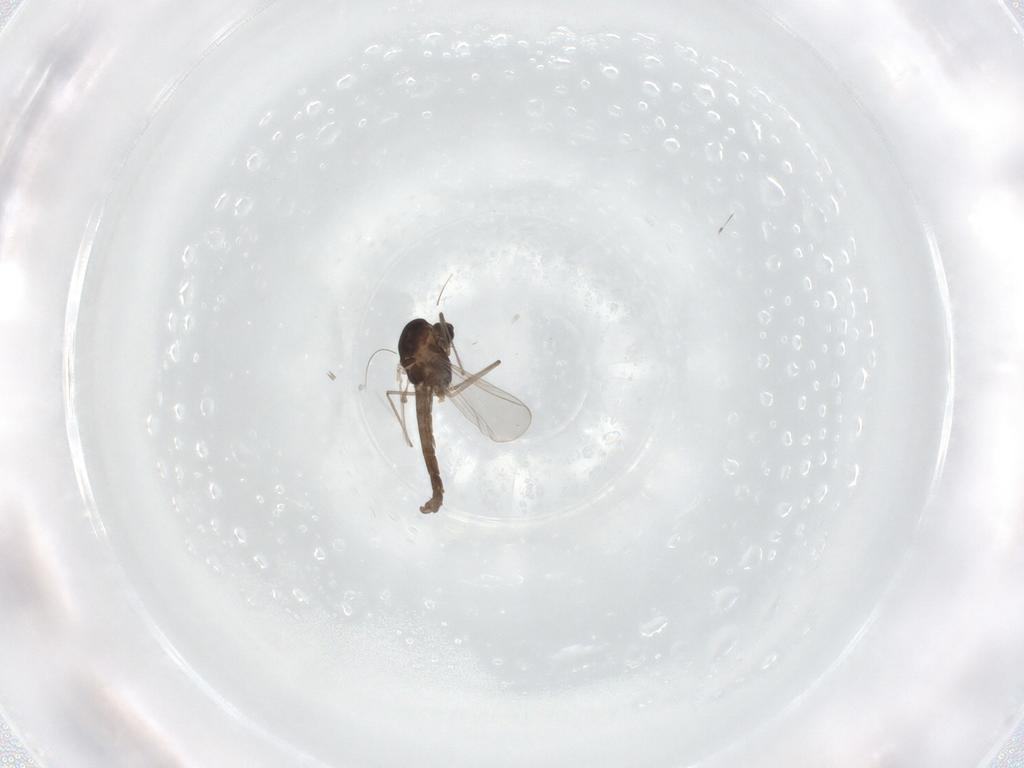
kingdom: Animalia
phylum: Arthropoda
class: Insecta
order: Diptera
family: Chironomidae
